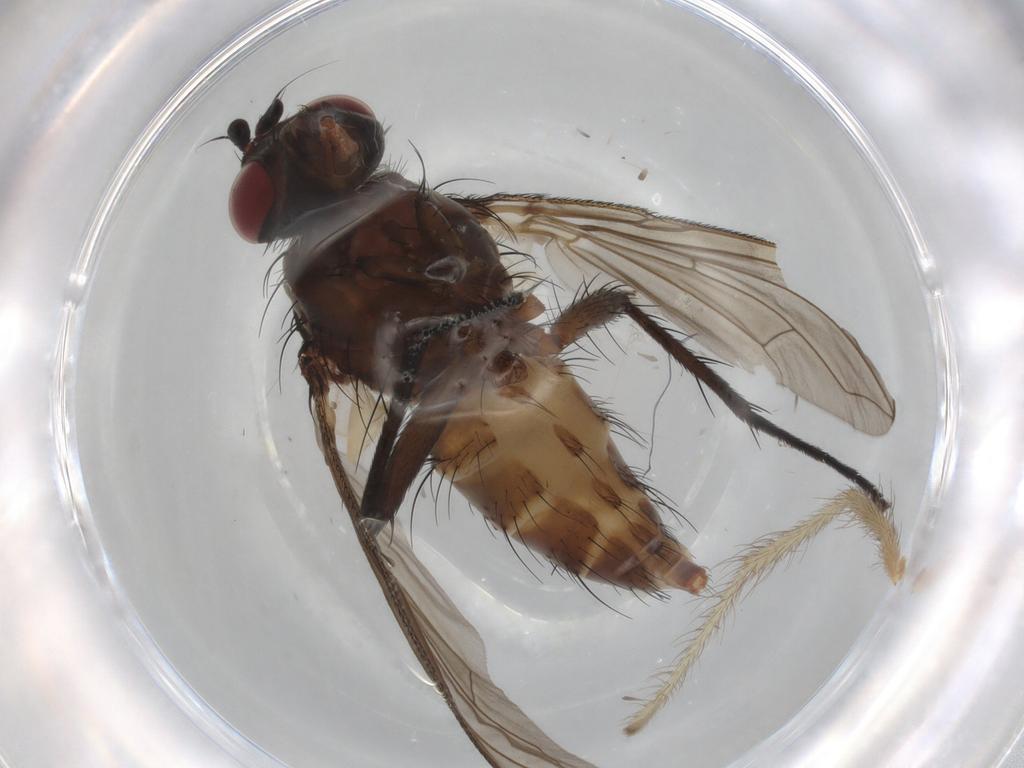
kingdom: Animalia
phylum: Arthropoda
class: Insecta
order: Diptera
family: Muscidae
